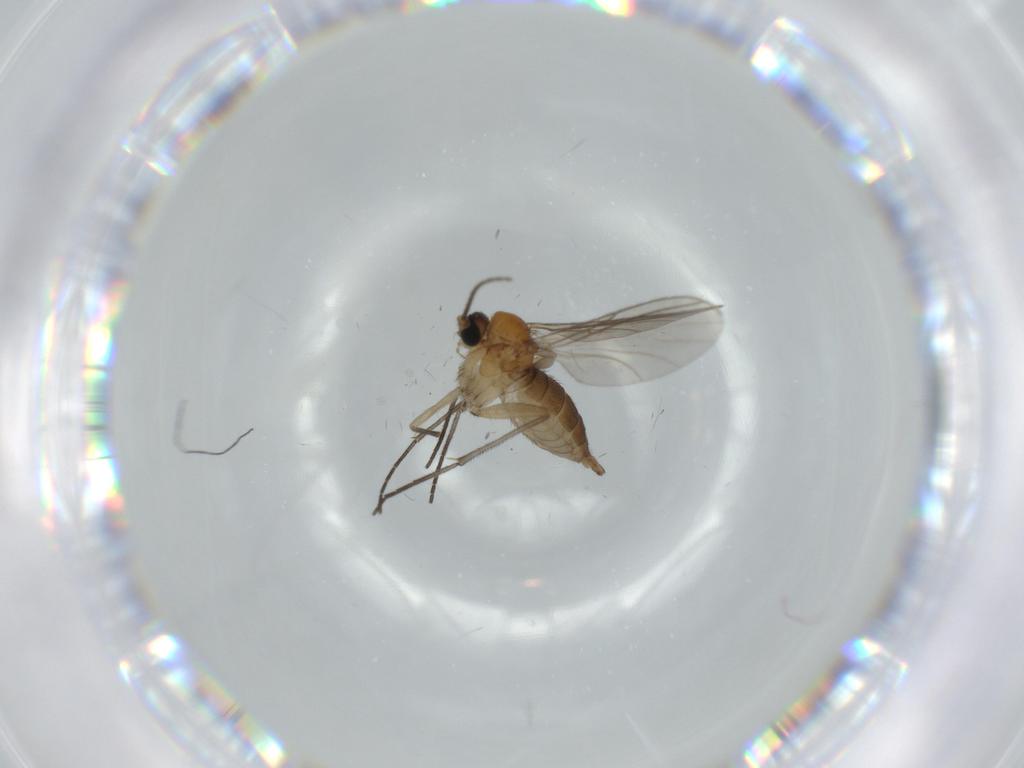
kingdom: Animalia
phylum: Arthropoda
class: Insecta
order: Diptera
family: Sciaridae
